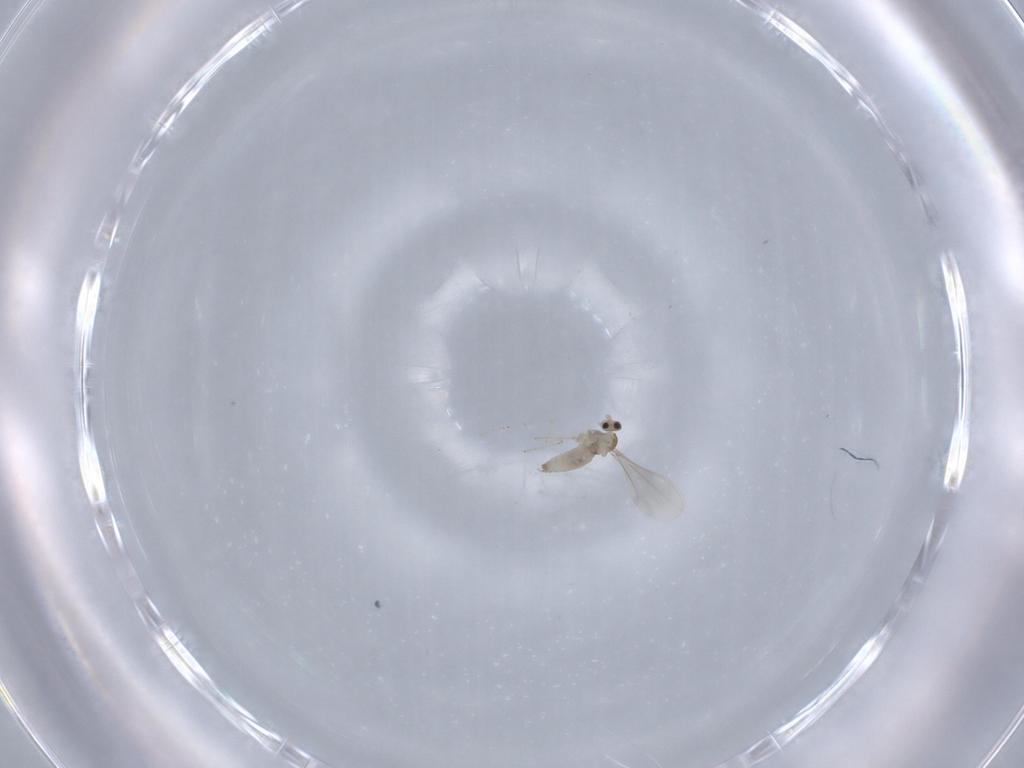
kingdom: Animalia
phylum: Arthropoda
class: Insecta
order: Diptera
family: Cecidomyiidae
